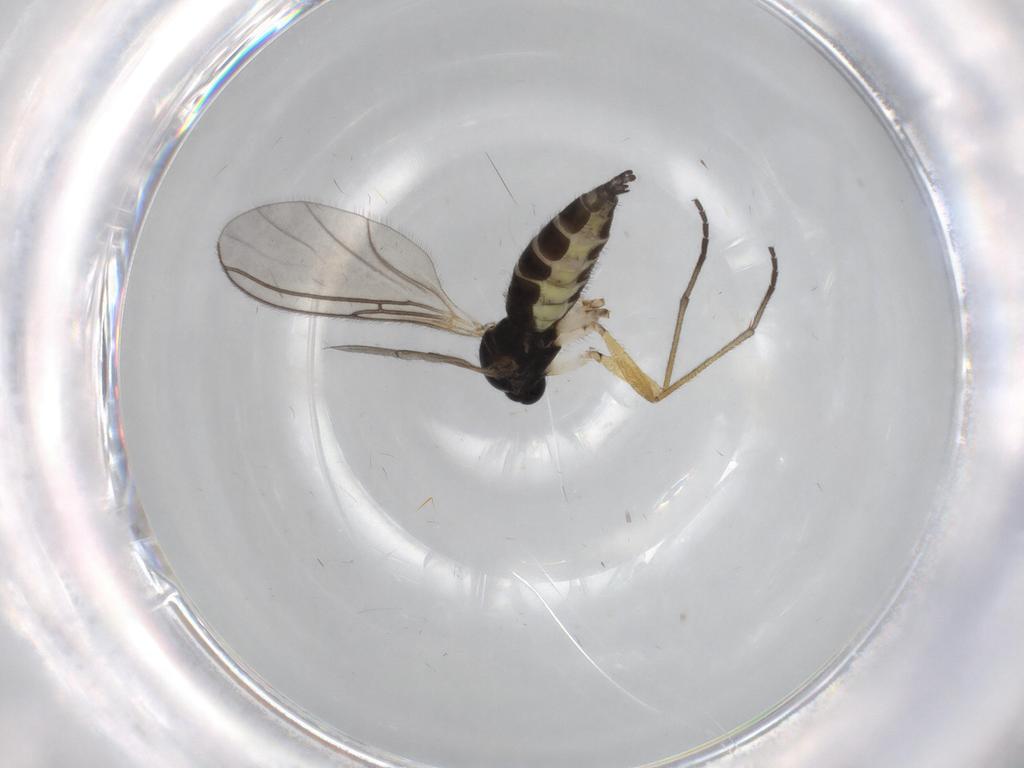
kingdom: Animalia
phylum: Arthropoda
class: Insecta
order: Diptera
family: Sciaridae
